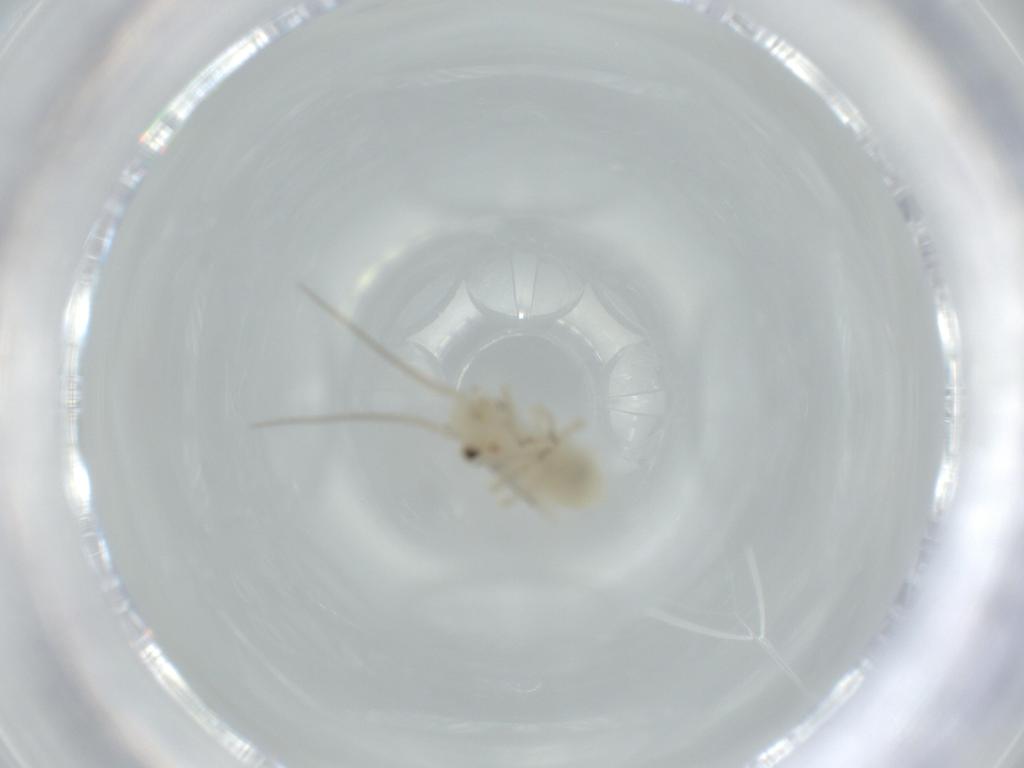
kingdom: Animalia
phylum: Arthropoda
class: Insecta
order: Psocodea
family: Caeciliusidae
